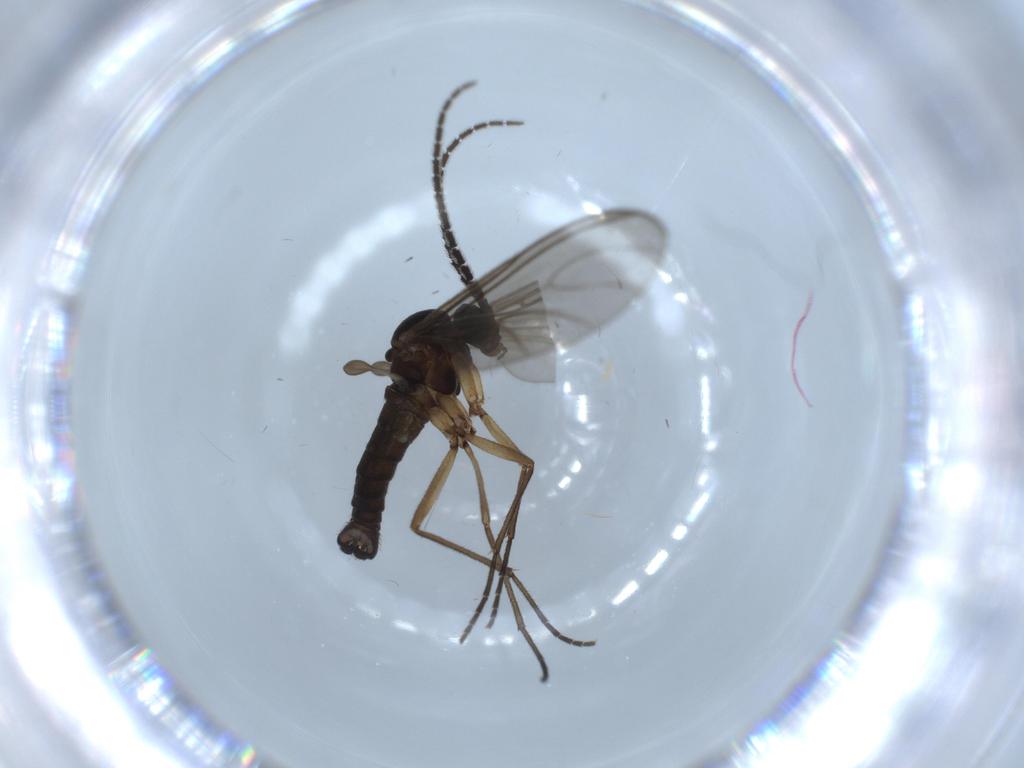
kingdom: Animalia
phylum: Arthropoda
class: Insecta
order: Diptera
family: Sciaridae
